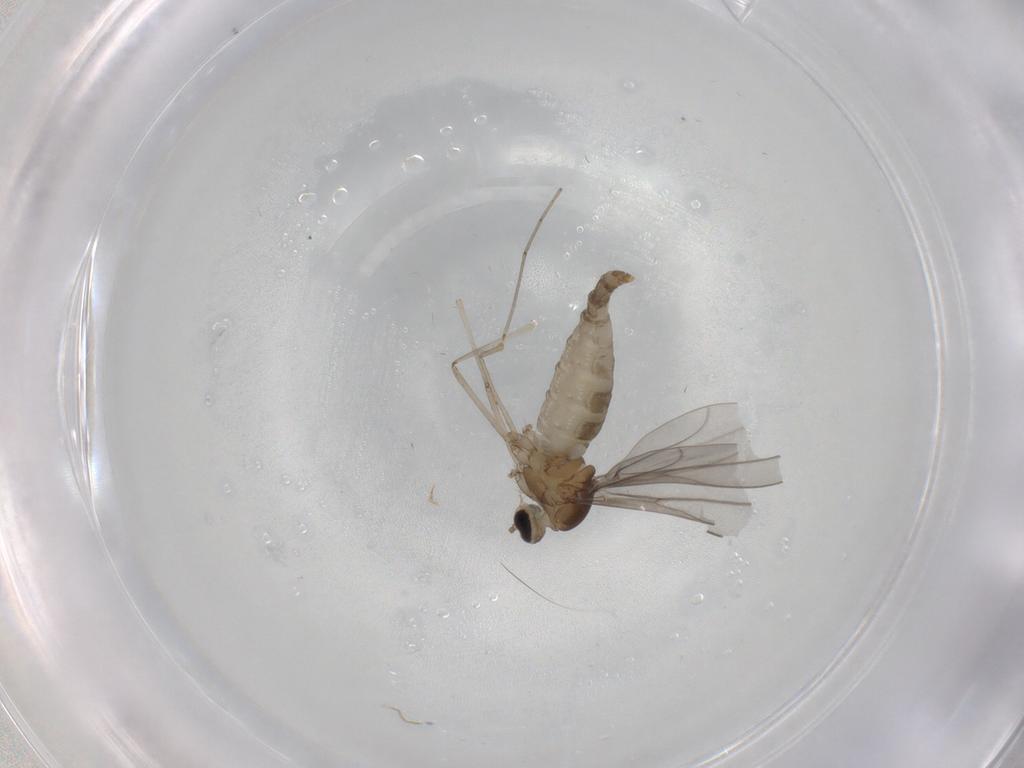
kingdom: Animalia
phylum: Arthropoda
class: Insecta
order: Diptera
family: Cecidomyiidae
